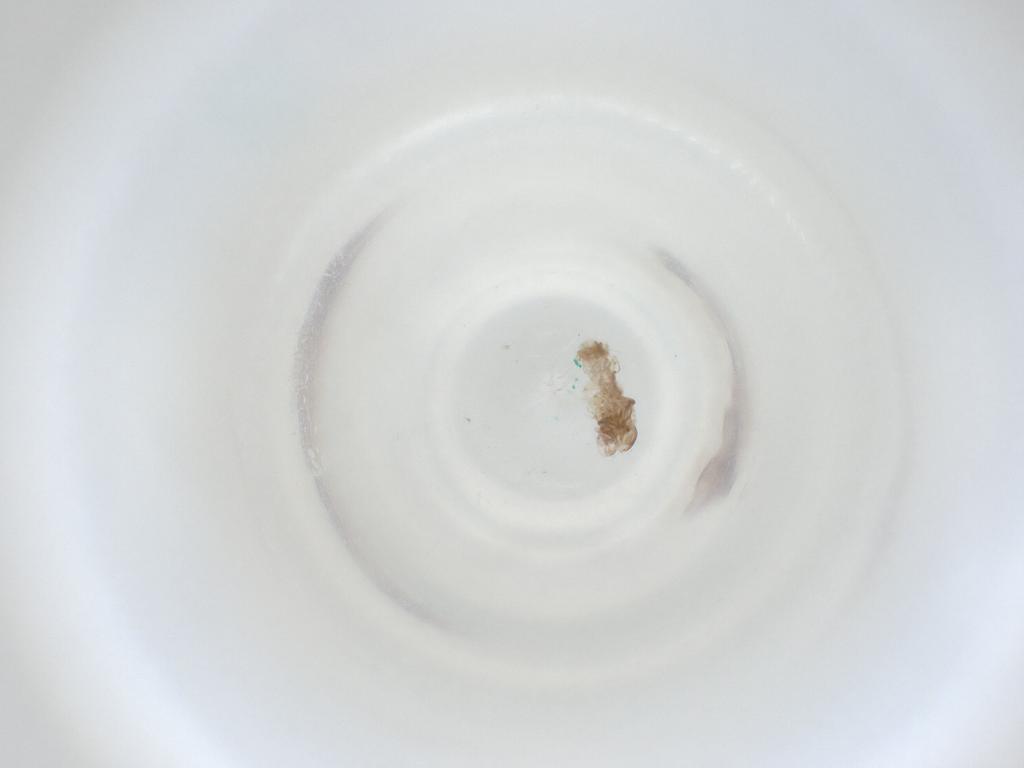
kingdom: Animalia
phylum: Arthropoda
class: Insecta
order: Diptera
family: Cecidomyiidae
